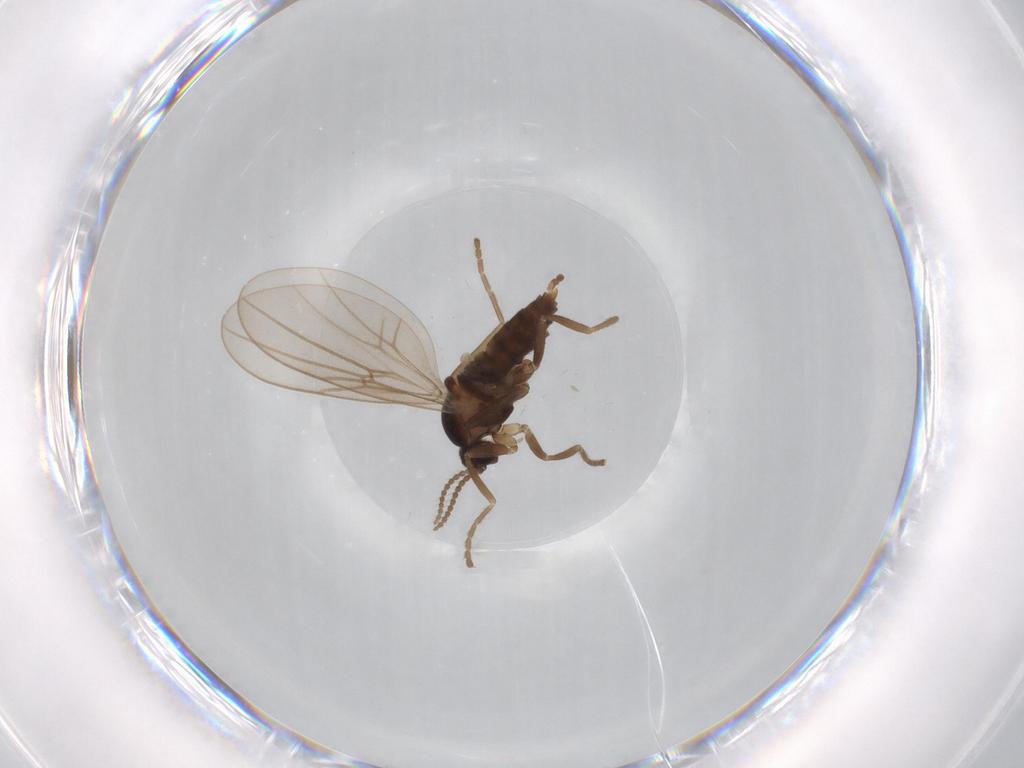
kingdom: Animalia
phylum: Arthropoda
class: Insecta
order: Diptera
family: Cecidomyiidae
